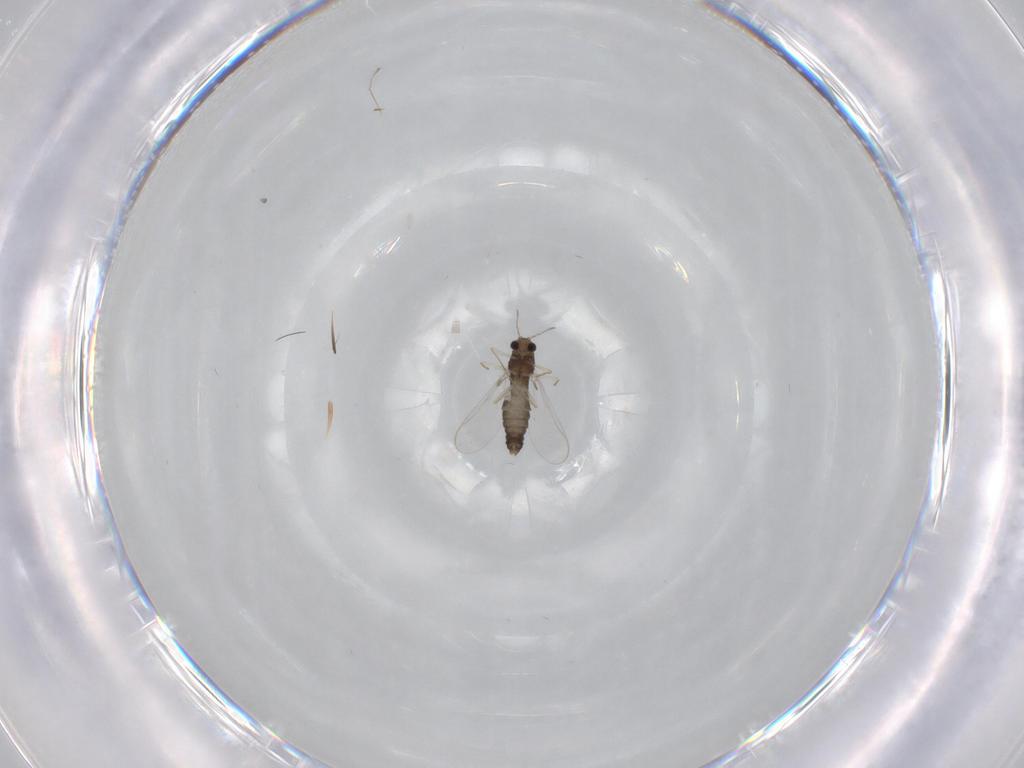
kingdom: Animalia
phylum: Arthropoda
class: Insecta
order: Diptera
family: Chironomidae
